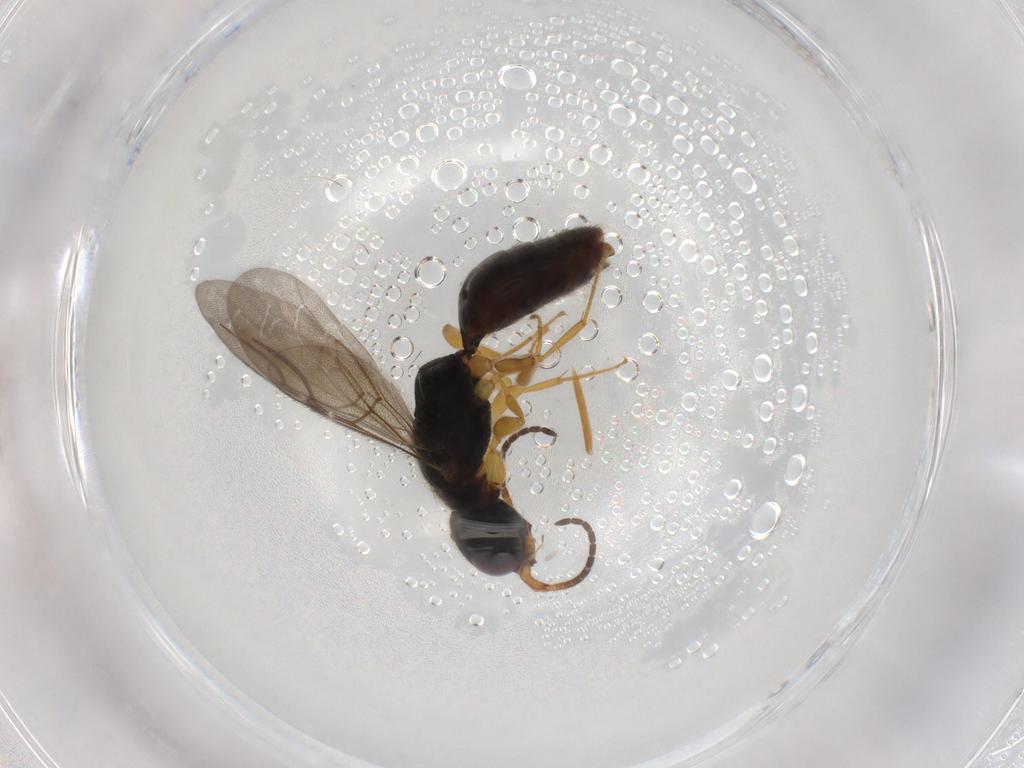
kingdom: Animalia
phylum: Arthropoda
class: Insecta
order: Hymenoptera
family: Bethylidae
